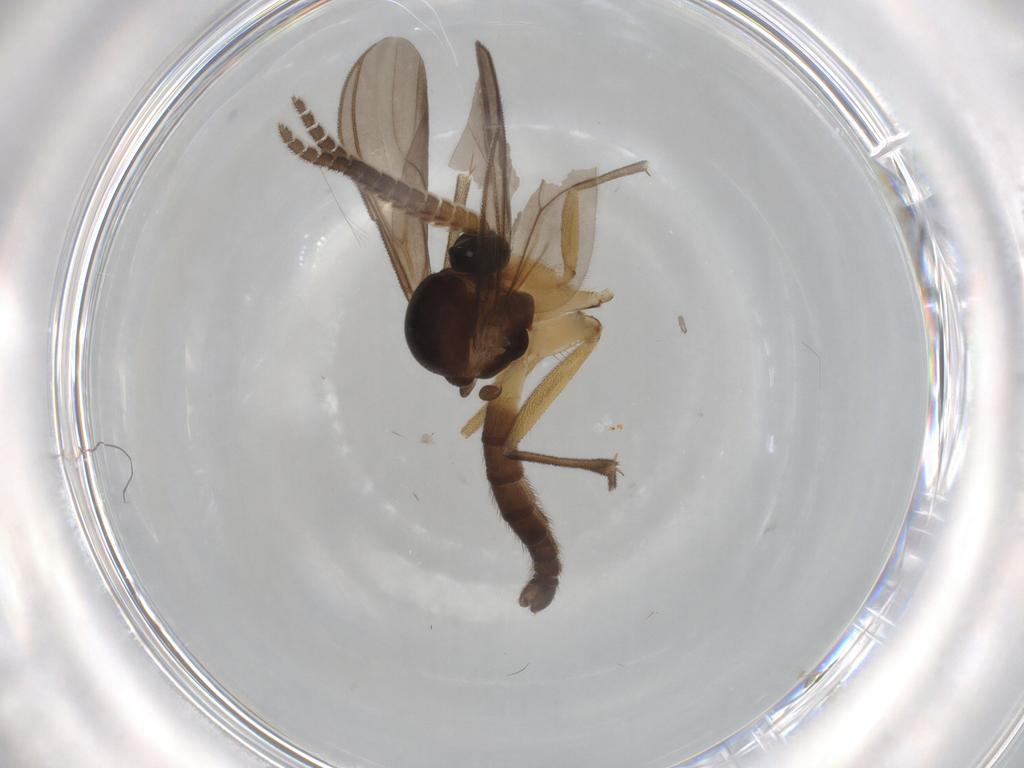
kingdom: Animalia
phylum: Arthropoda
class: Insecta
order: Diptera
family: Mycetophilidae
